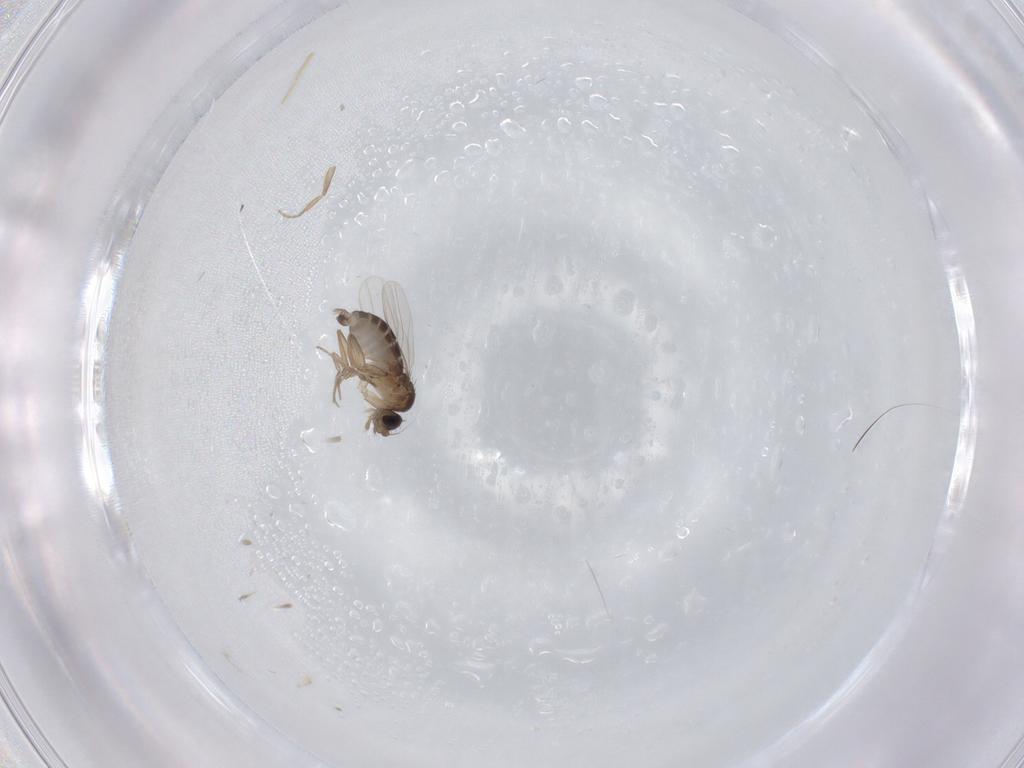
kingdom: Animalia
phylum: Arthropoda
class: Insecta
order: Diptera
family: Phoridae
